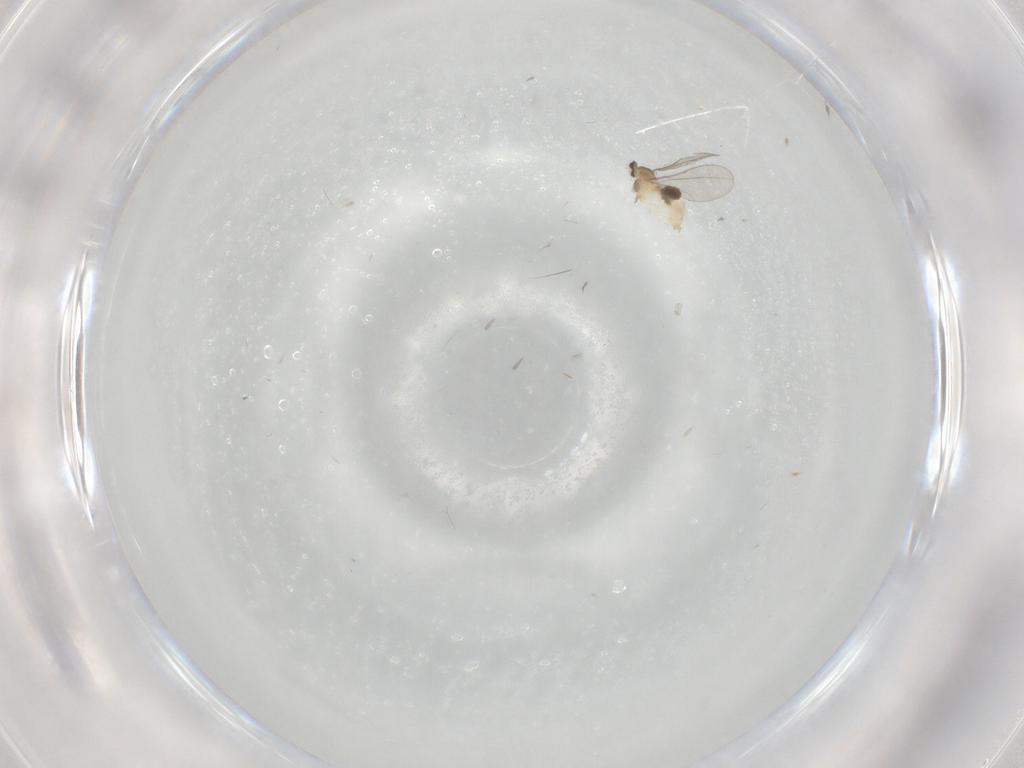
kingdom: Animalia
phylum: Arthropoda
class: Insecta
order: Diptera
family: Cecidomyiidae
